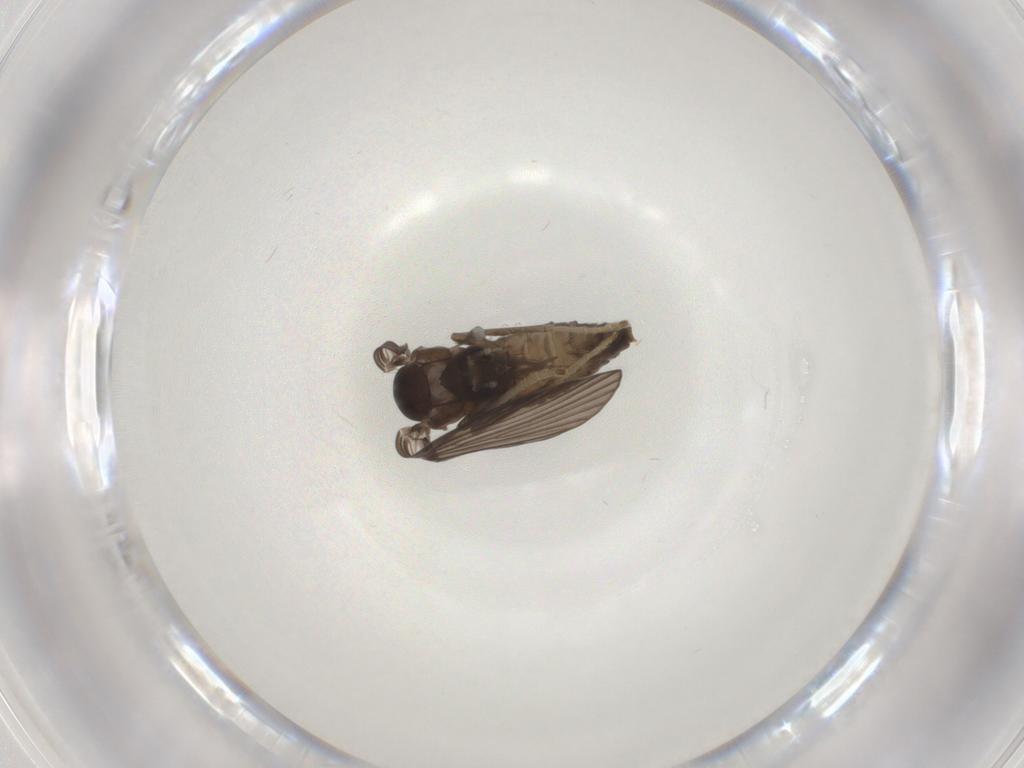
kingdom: Animalia
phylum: Arthropoda
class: Insecta
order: Diptera
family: Psychodidae
